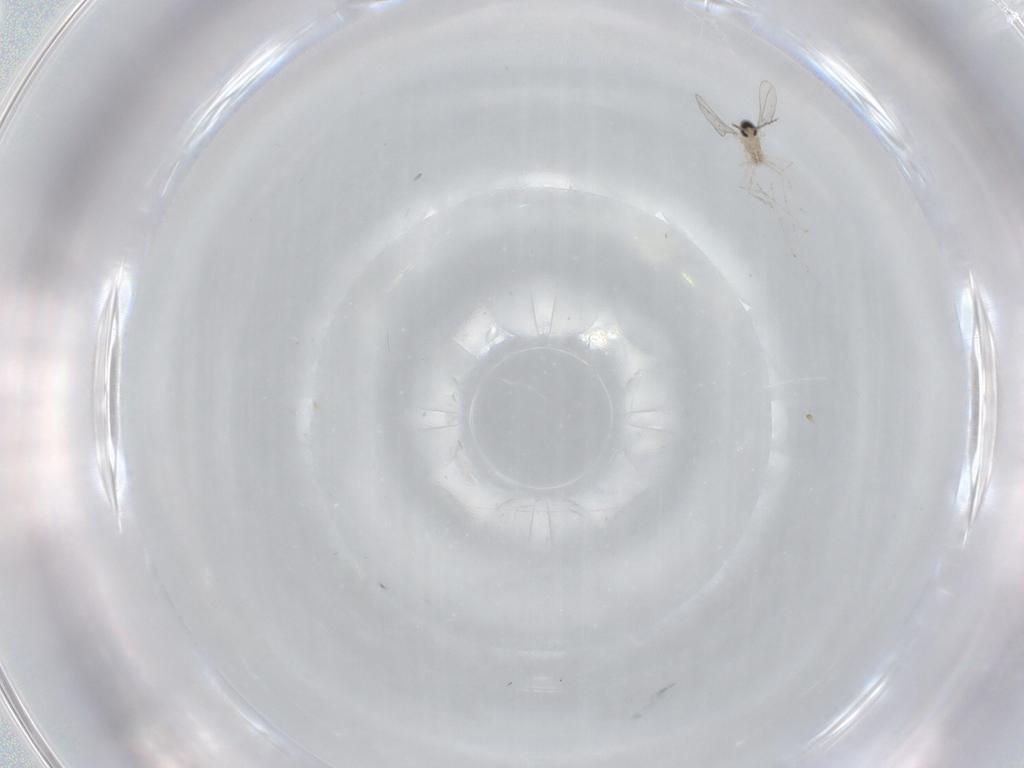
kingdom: Animalia
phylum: Arthropoda
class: Insecta
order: Diptera
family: Cecidomyiidae
